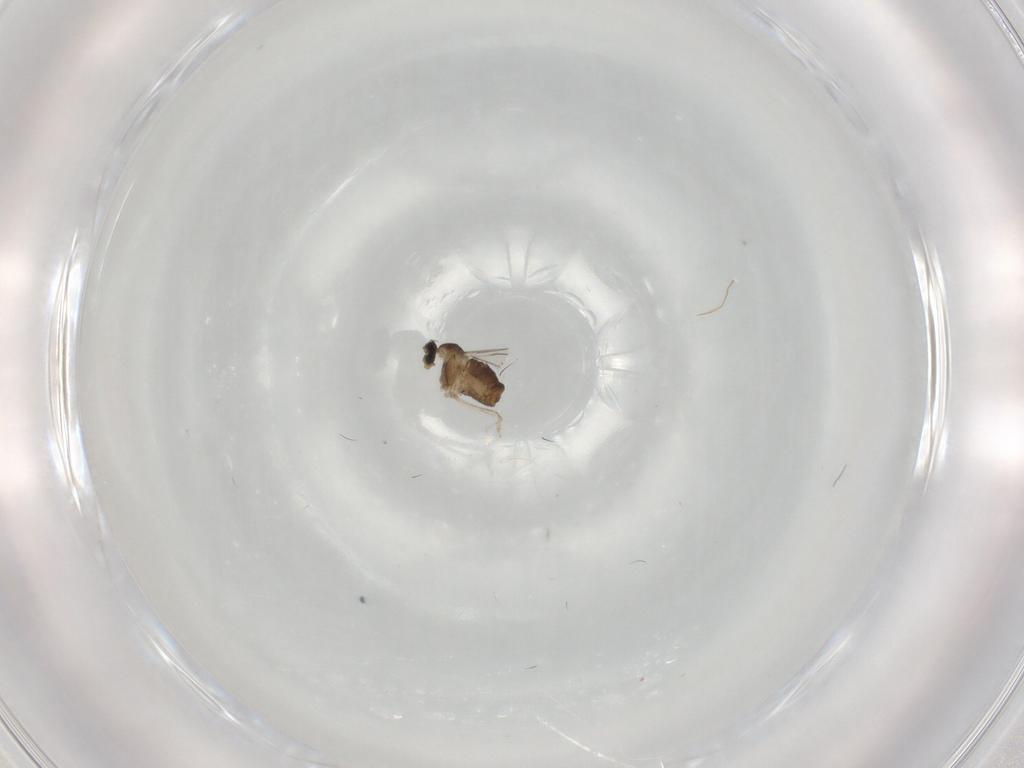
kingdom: Animalia
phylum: Arthropoda
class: Insecta
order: Diptera
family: Cecidomyiidae
